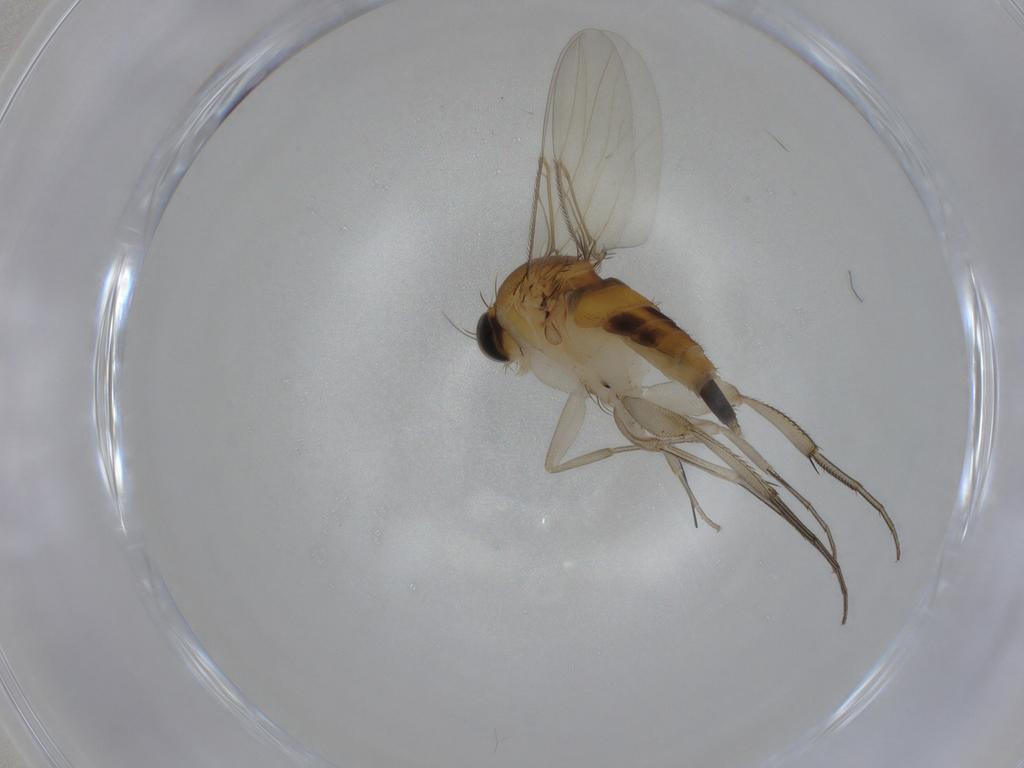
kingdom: Animalia
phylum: Arthropoda
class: Insecta
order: Diptera
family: Phoridae
